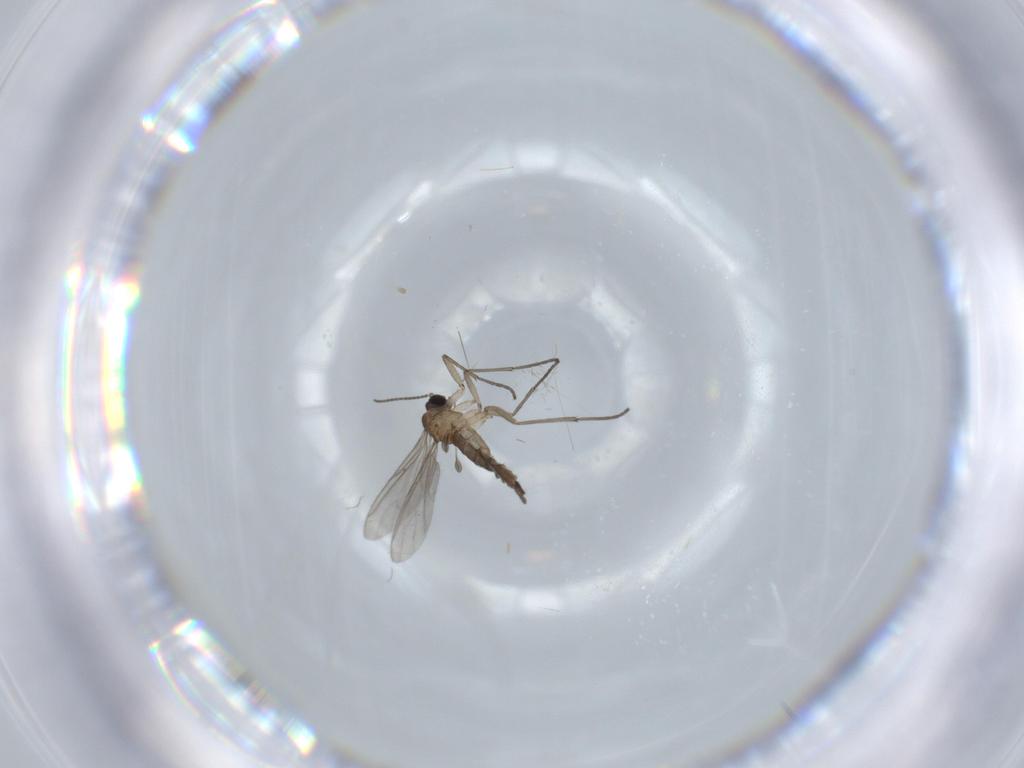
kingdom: Animalia
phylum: Arthropoda
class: Insecta
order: Diptera
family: Sciaridae
